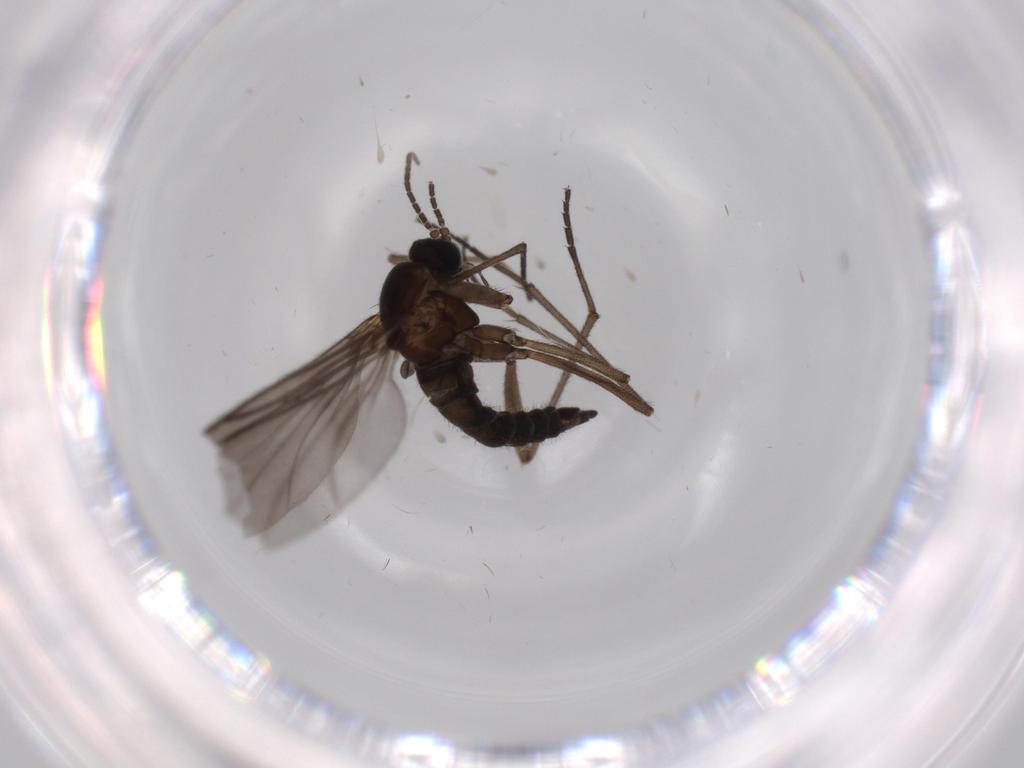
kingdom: Animalia
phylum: Arthropoda
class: Insecta
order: Diptera
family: Sciaridae
